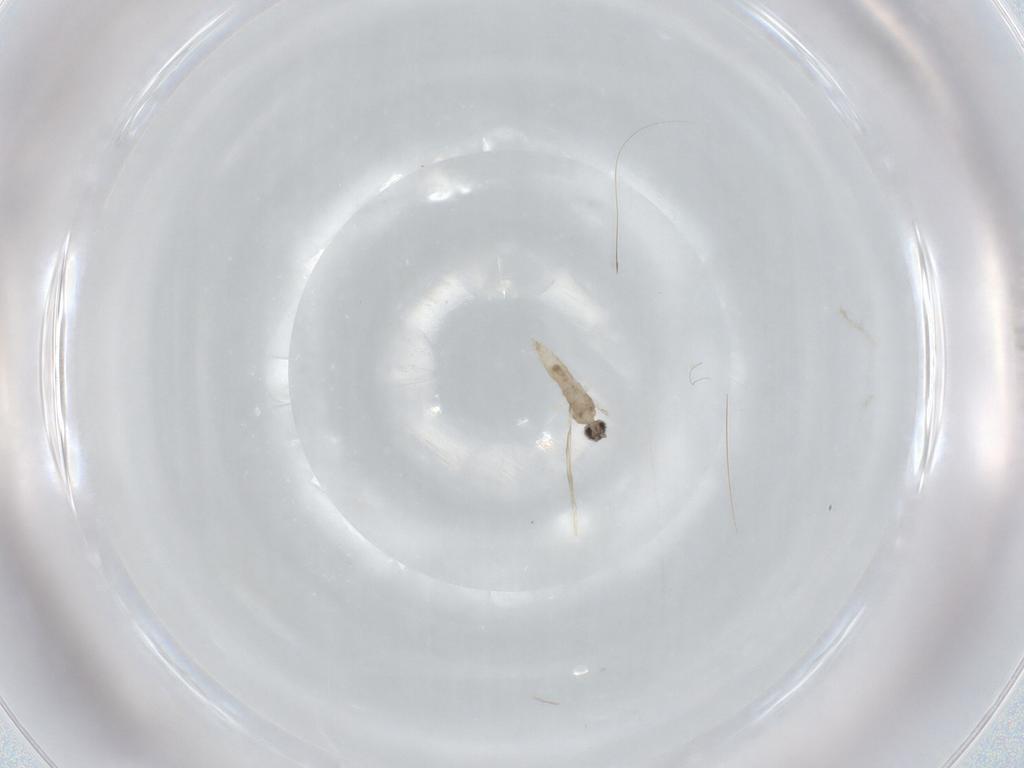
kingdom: Animalia
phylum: Arthropoda
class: Insecta
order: Diptera
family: Cecidomyiidae
